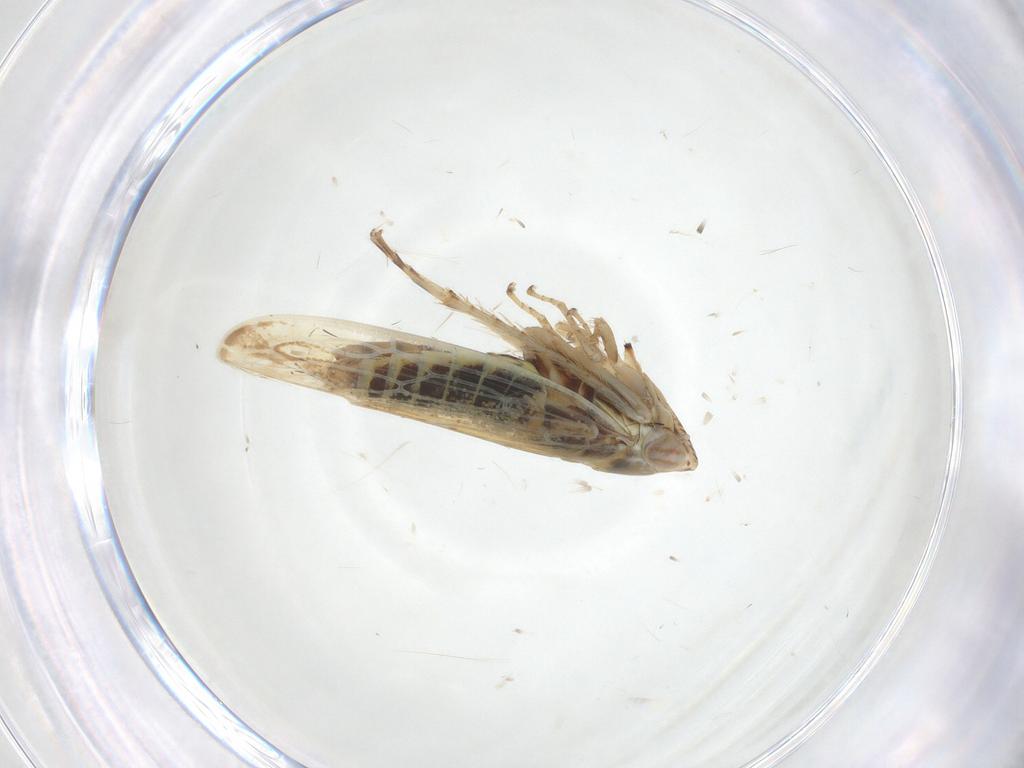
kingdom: Animalia
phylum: Arthropoda
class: Insecta
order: Hemiptera
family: Cicadellidae
